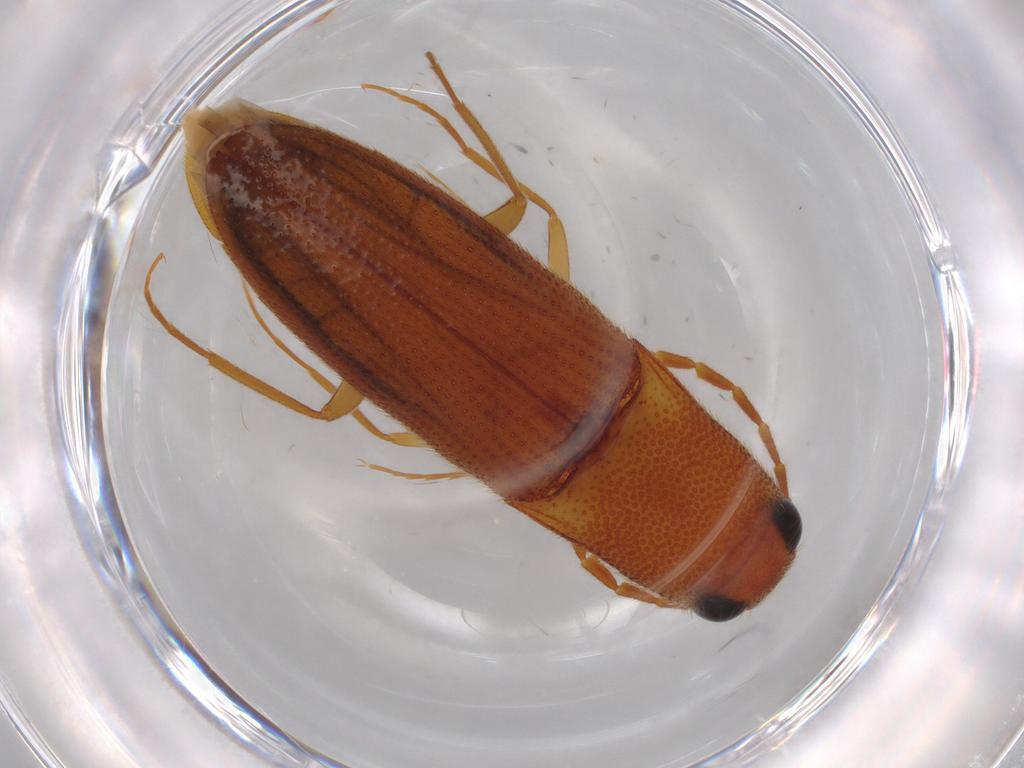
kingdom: Animalia
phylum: Arthropoda
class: Insecta
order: Coleoptera
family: Elateridae
